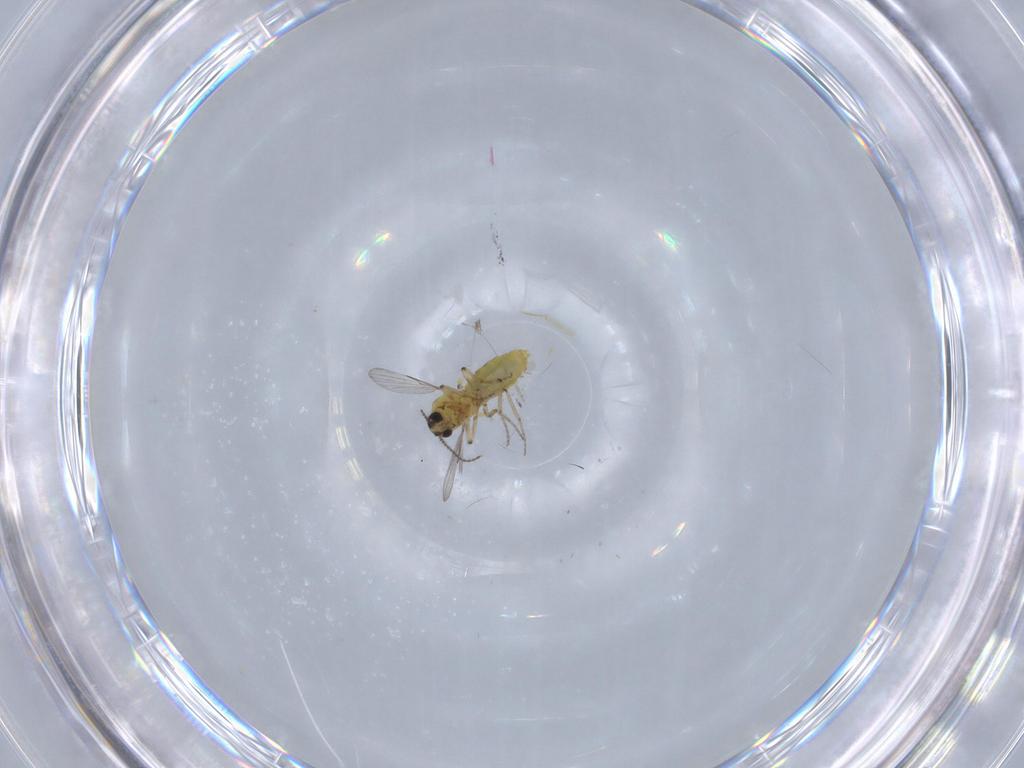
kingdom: Animalia
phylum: Arthropoda
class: Insecta
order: Diptera
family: Ceratopogonidae
